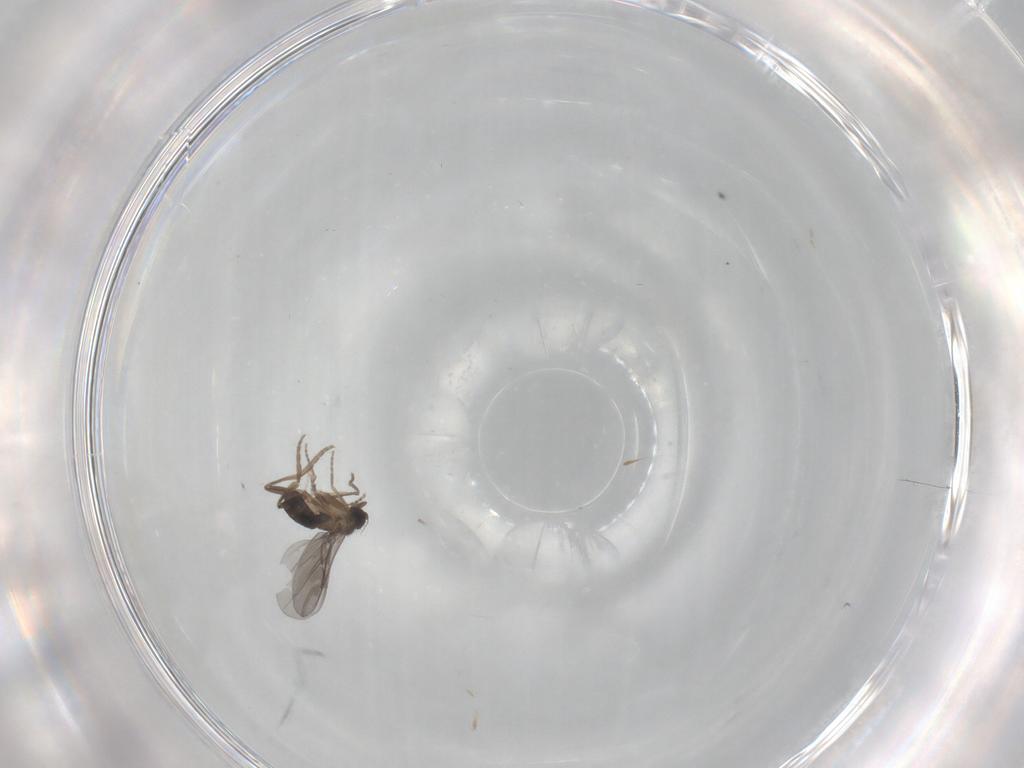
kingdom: Animalia
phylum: Arthropoda
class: Insecta
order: Diptera
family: Cecidomyiidae
